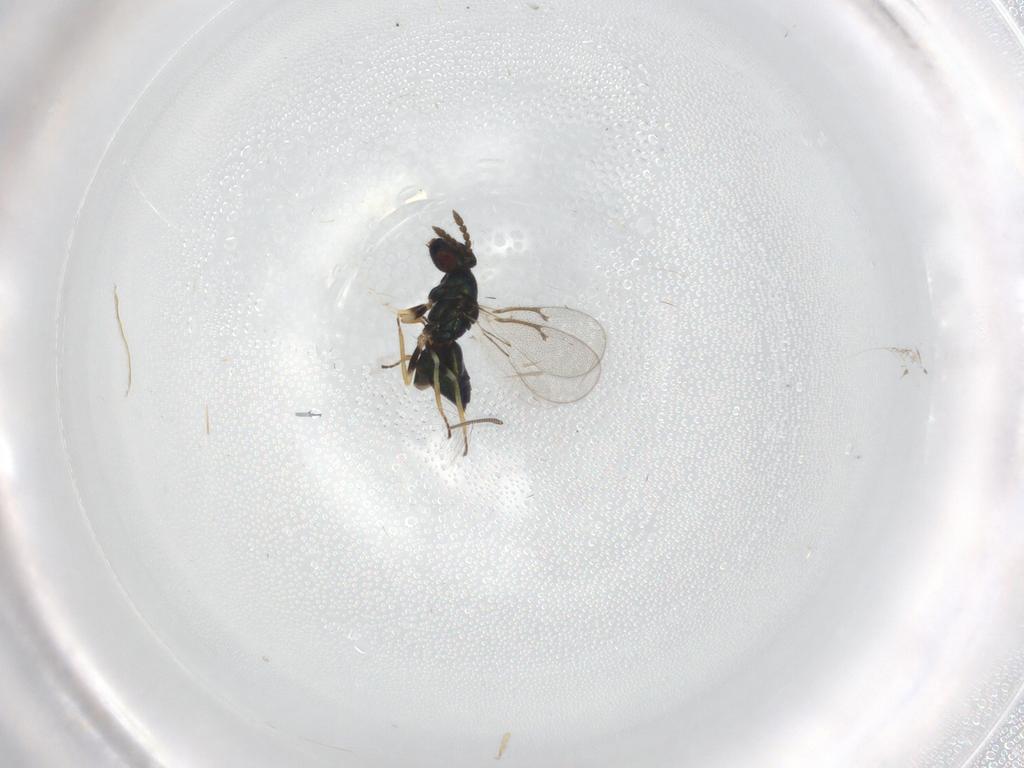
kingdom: Animalia
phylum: Arthropoda
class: Insecta
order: Hymenoptera
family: Eulophidae
